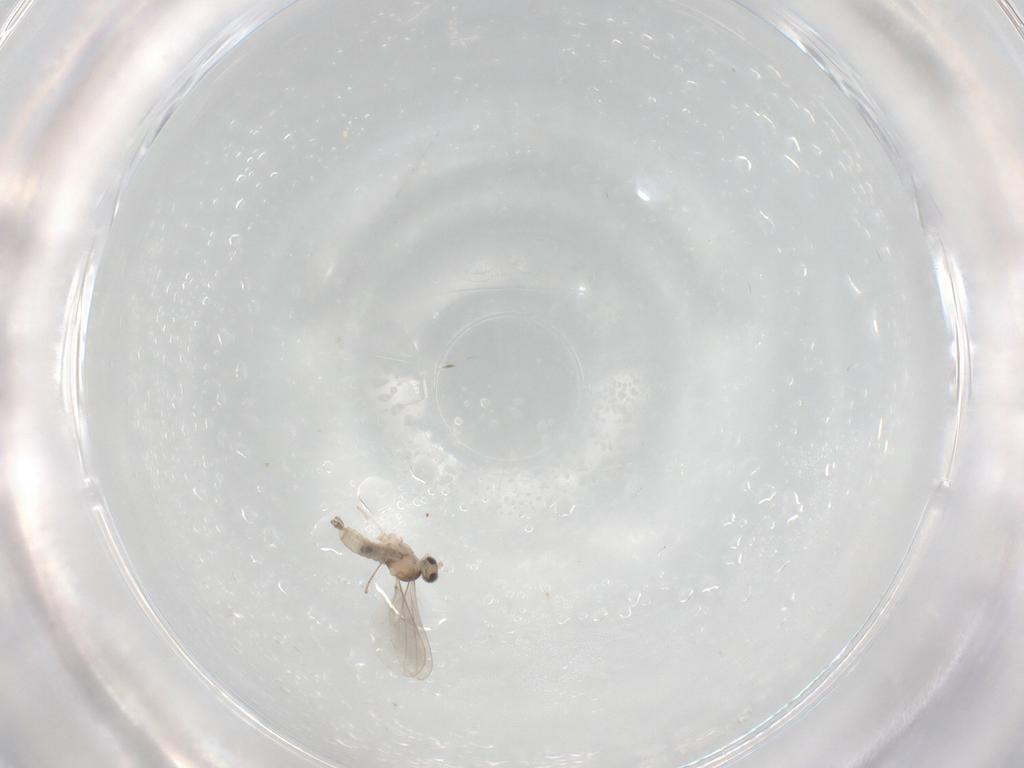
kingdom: Animalia
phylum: Arthropoda
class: Insecta
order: Diptera
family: Cecidomyiidae
